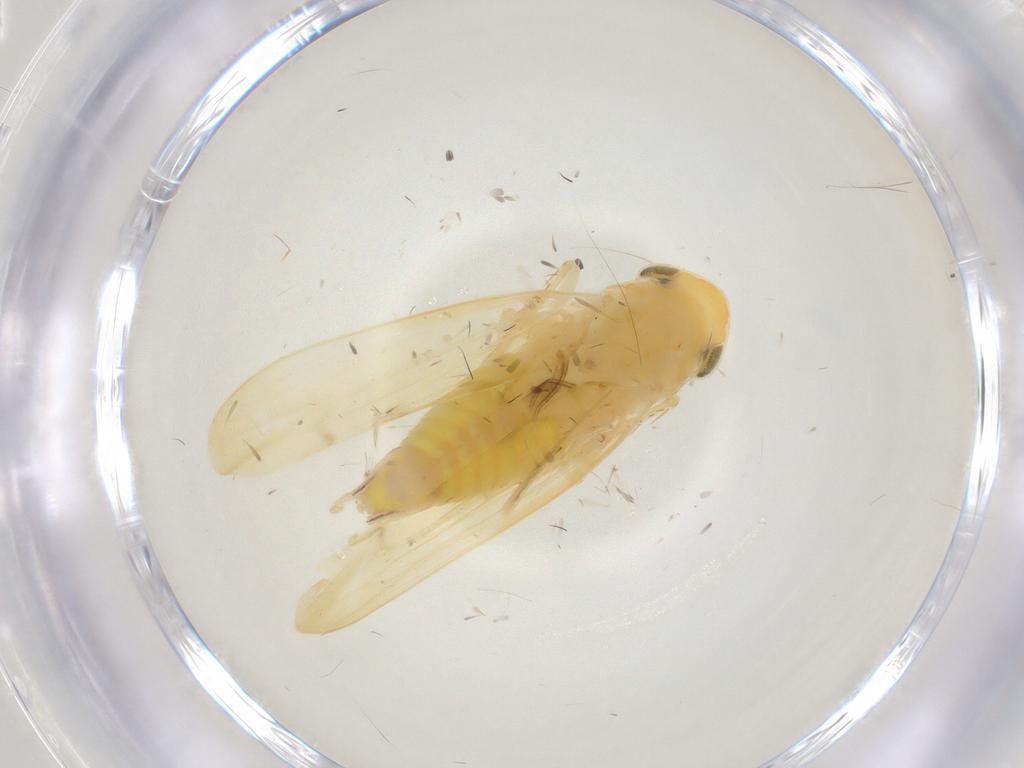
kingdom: Animalia
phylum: Arthropoda
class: Insecta
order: Hemiptera
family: Cicadellidae
